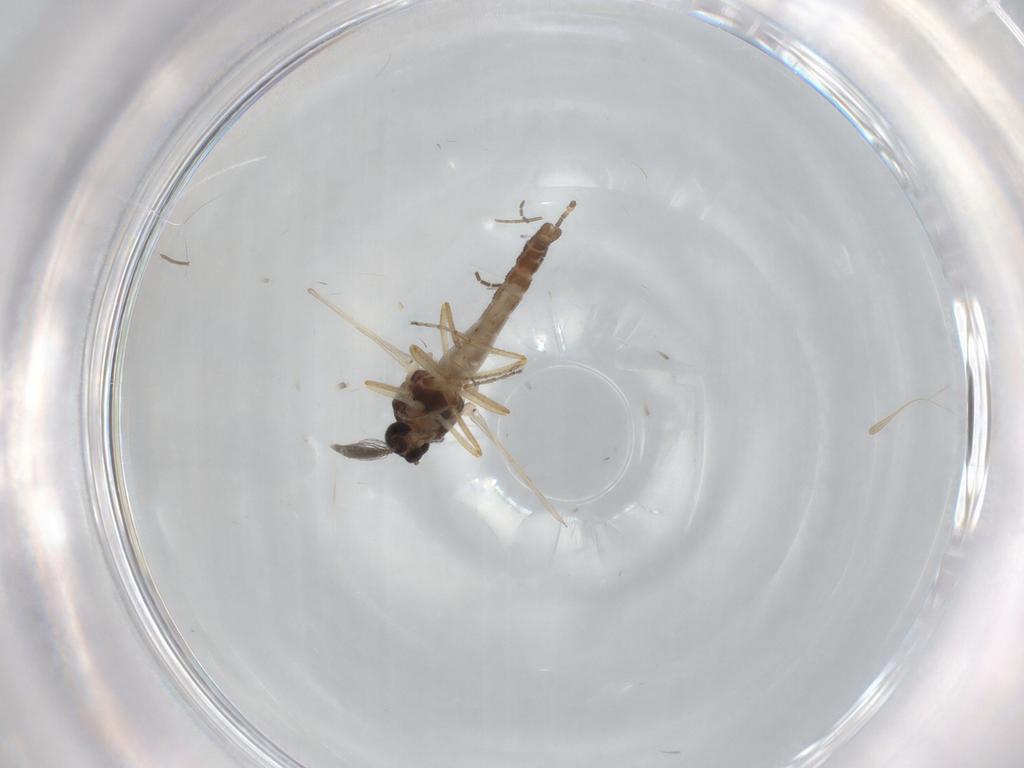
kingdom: Animalia
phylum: Arthropoda
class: Insecta
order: Diptera
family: Sciaridae
